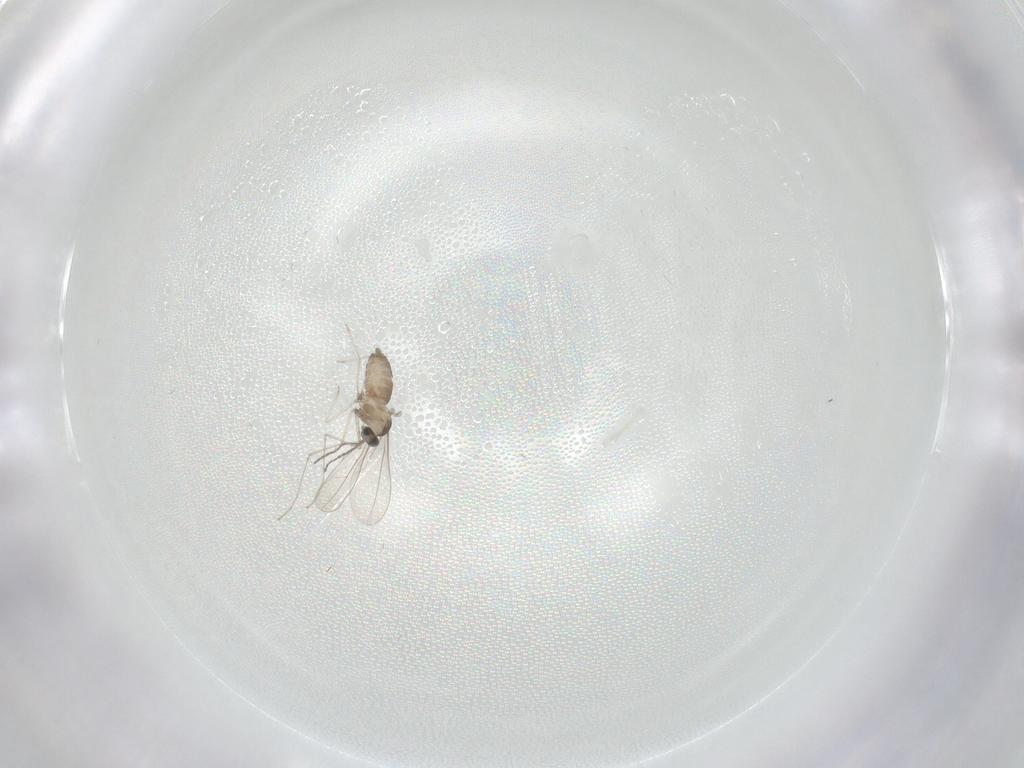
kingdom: Animalia
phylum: Arthropoda
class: Insecta
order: Diptera
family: Cecidomyiidae
